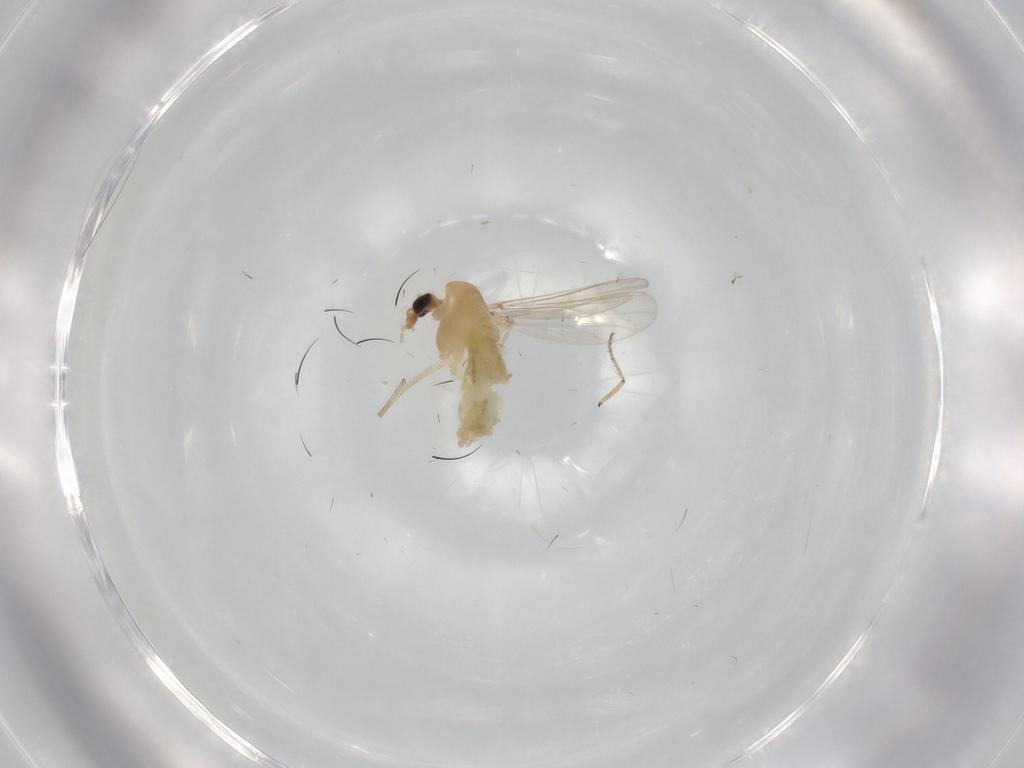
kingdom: Animalia
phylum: Arthropoda
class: Insecta
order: Diptera
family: Chironomidae
